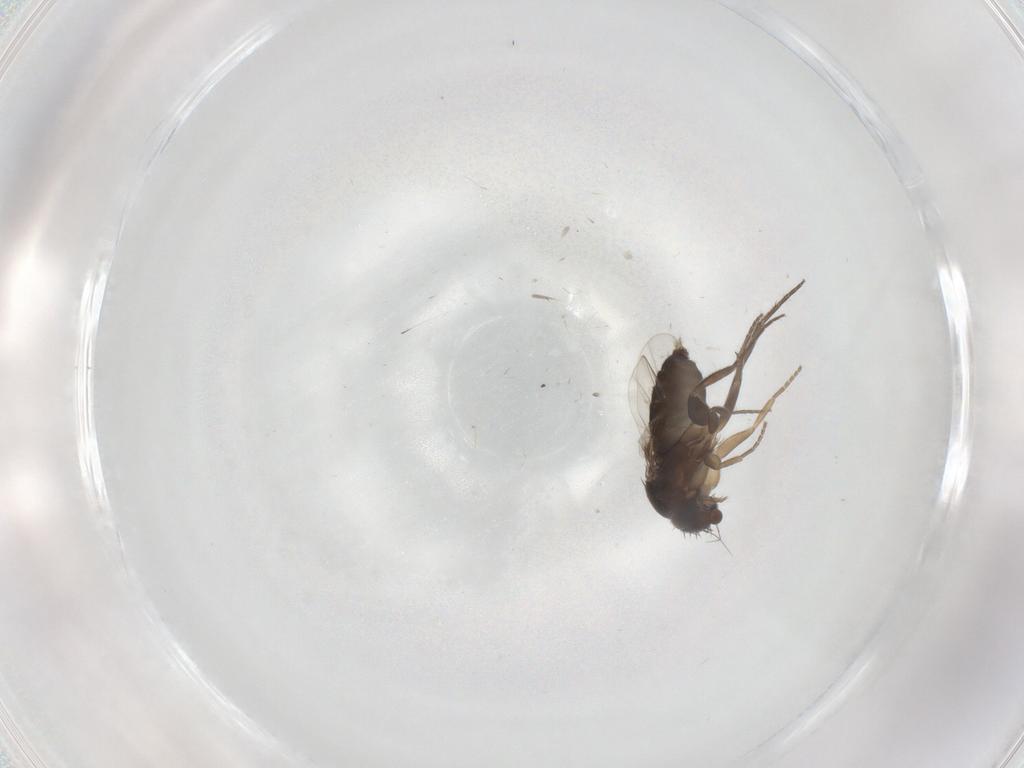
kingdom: Animalia
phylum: Arthropoda
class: Insecta
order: Diptera
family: Phoridae
